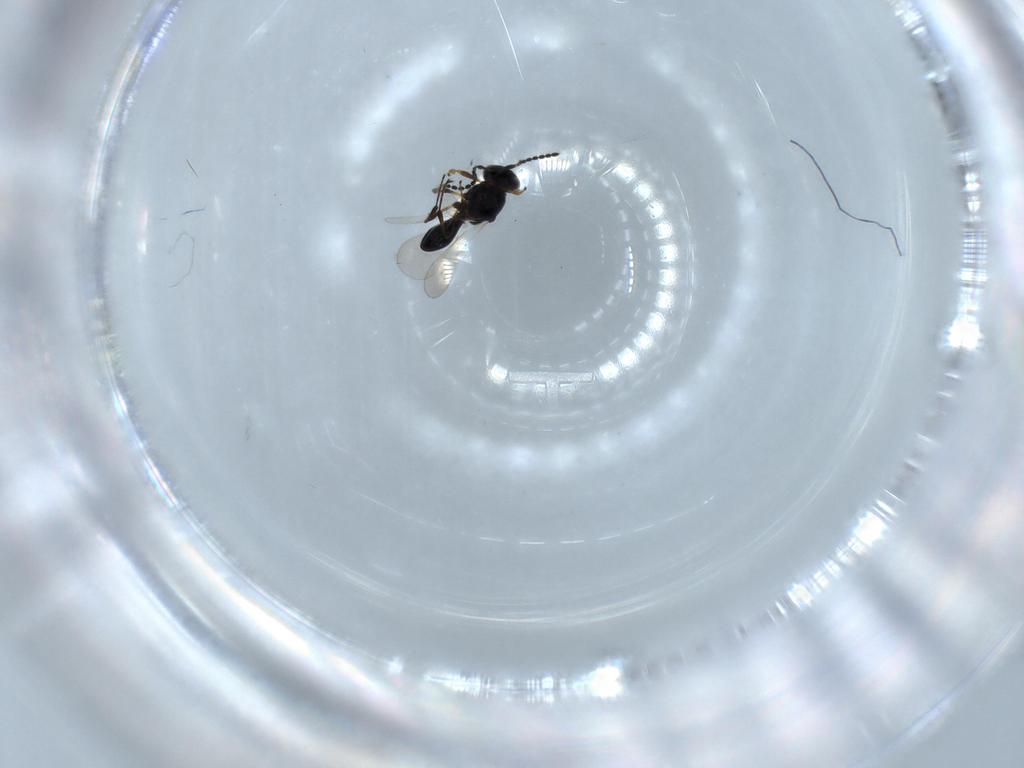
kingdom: Animalia
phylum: Arthropoda
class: Insecta
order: Hymenoptera
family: Platygastridae
